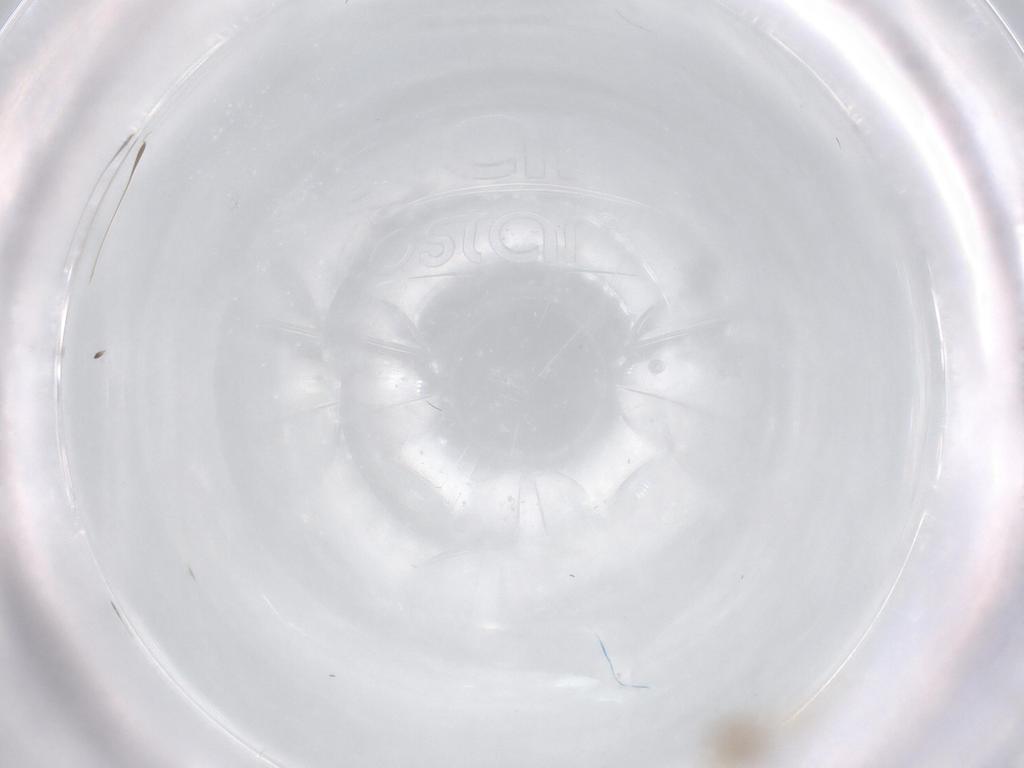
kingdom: Animalia
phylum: Arthropoda
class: Insecta
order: Diptera
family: Cecidomyiidae
